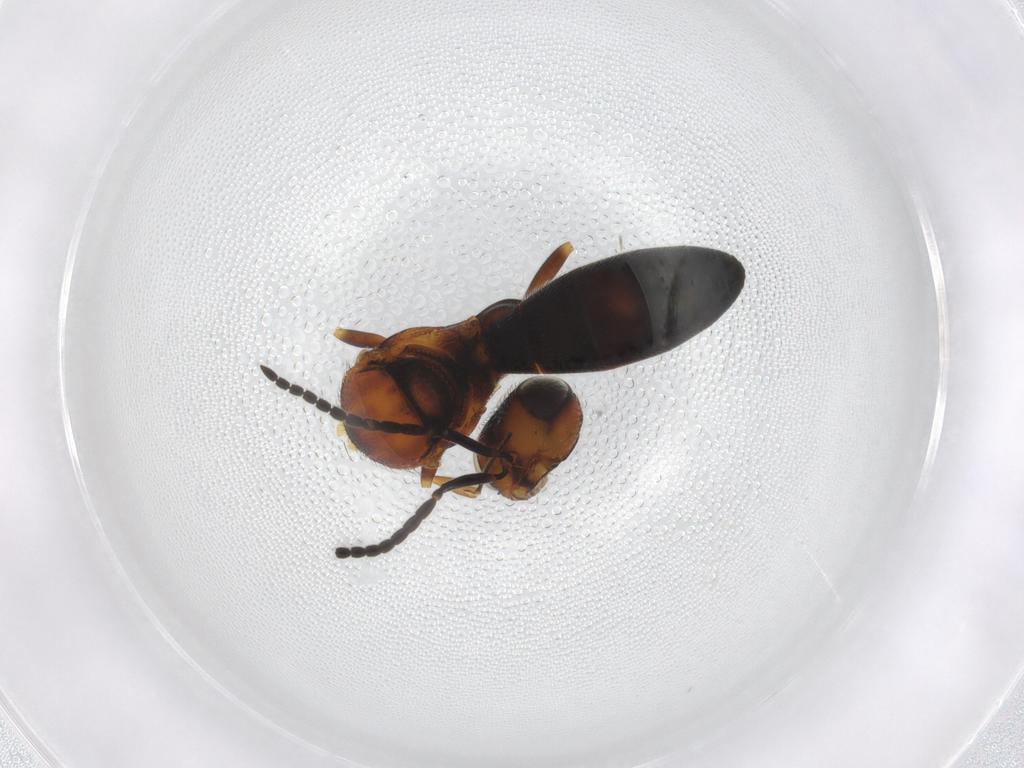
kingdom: Animalia
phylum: Arthropoda
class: Insecta
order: Hymenoptera
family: Scelionidae
